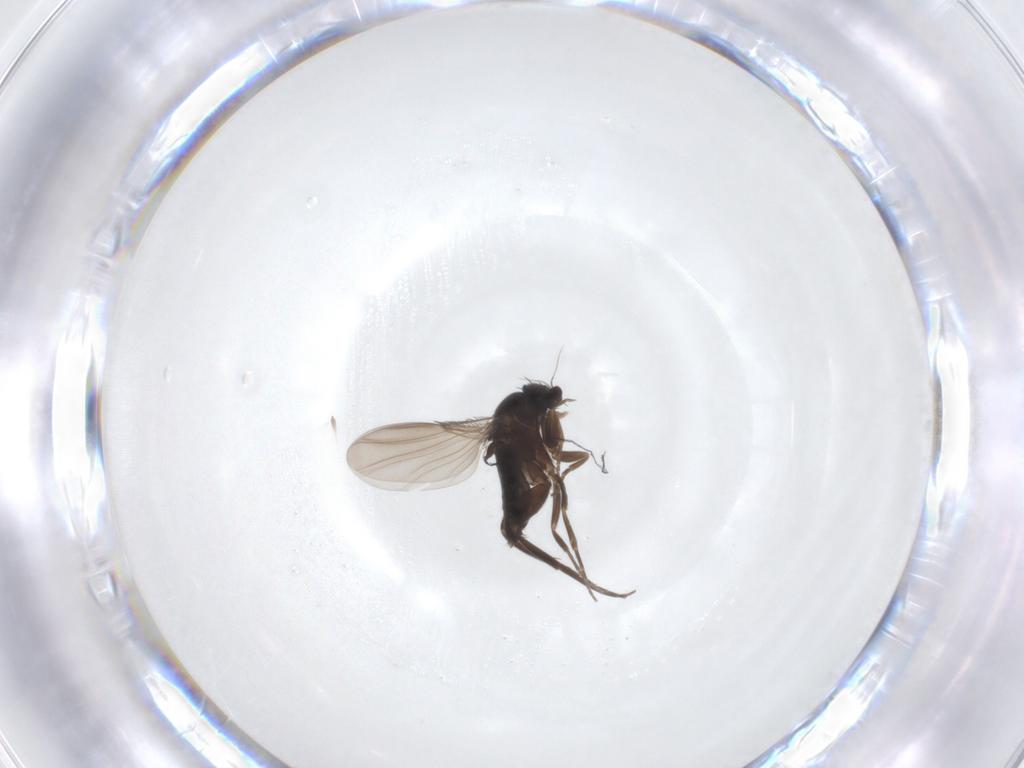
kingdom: Animalia
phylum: Arthropoda
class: Insecta
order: Diptera
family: Phoridae
